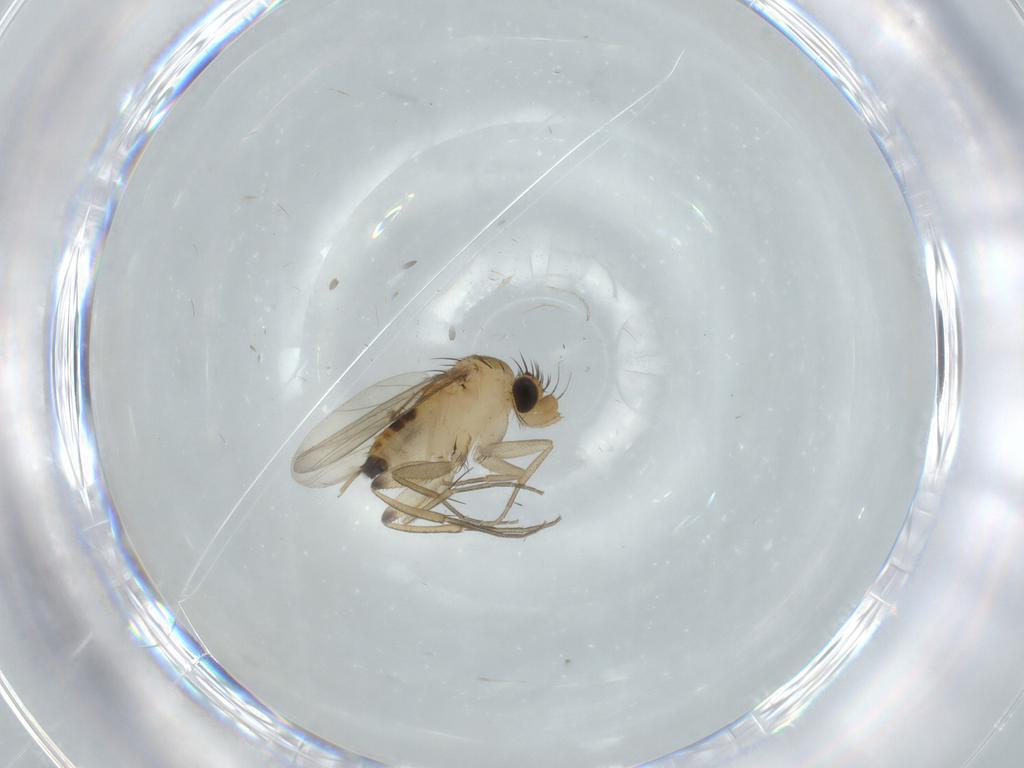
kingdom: Animalia
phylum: Arthropoda
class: Insecta
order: Diptera
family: Phoridae
